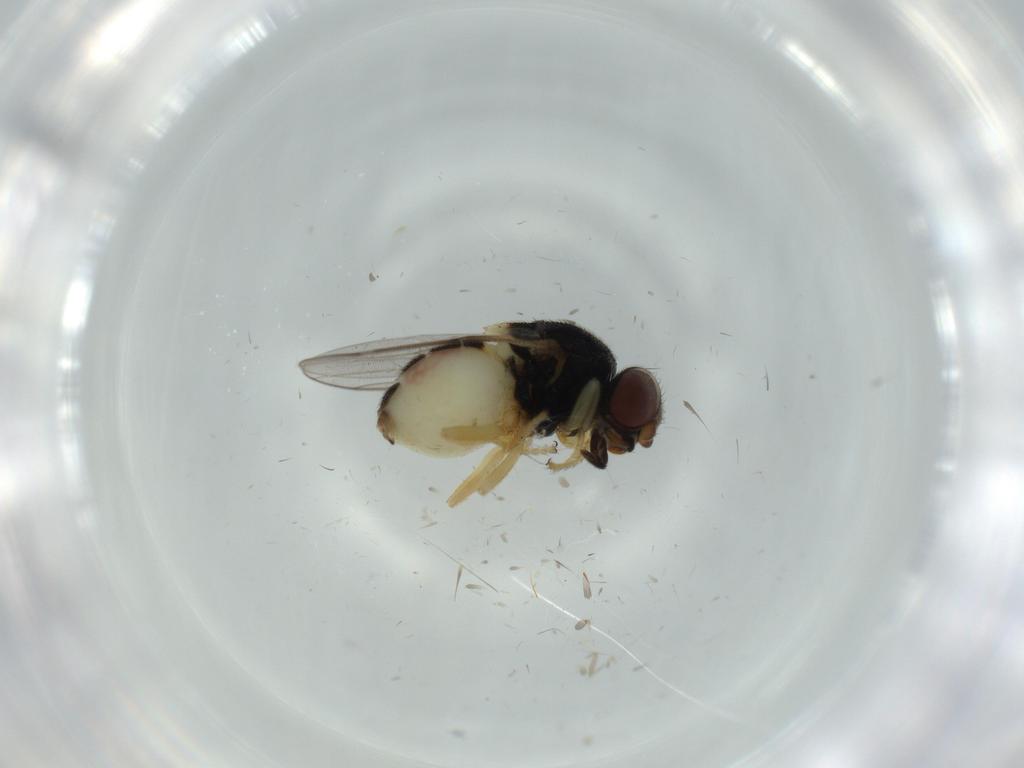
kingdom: Animalia
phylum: Arthropoda
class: Insecta
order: Diptera
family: Chloropidae
